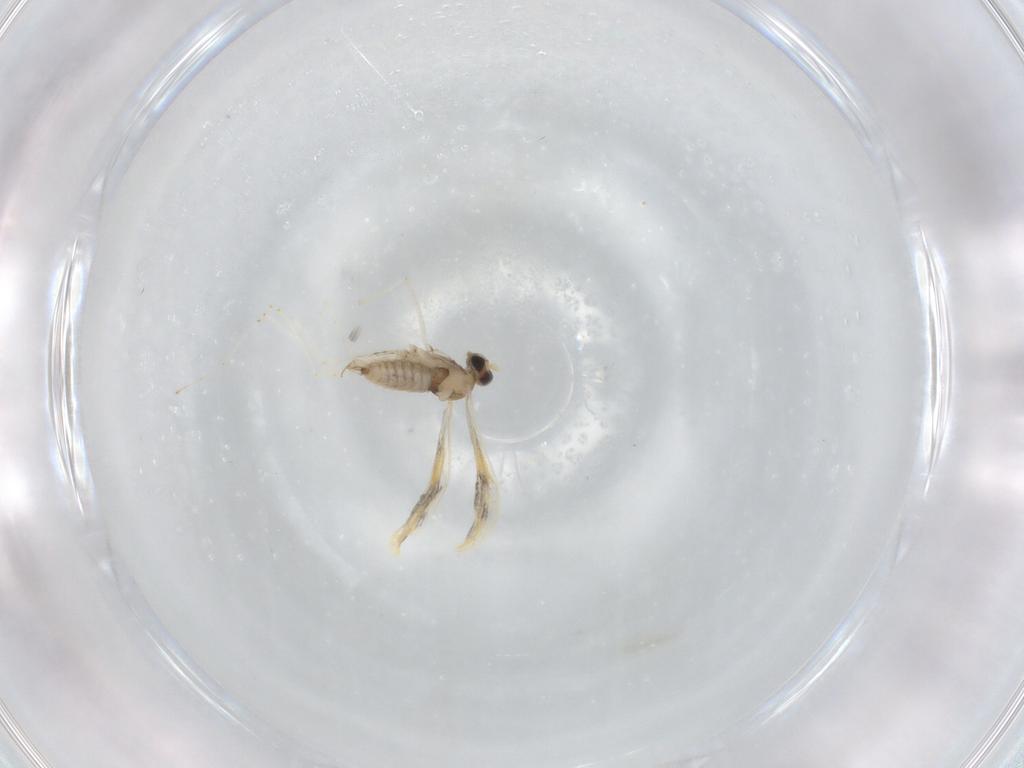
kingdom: Animalia
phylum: Arthropoda
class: Insecta
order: Diptera
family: Cecidomyiidae
